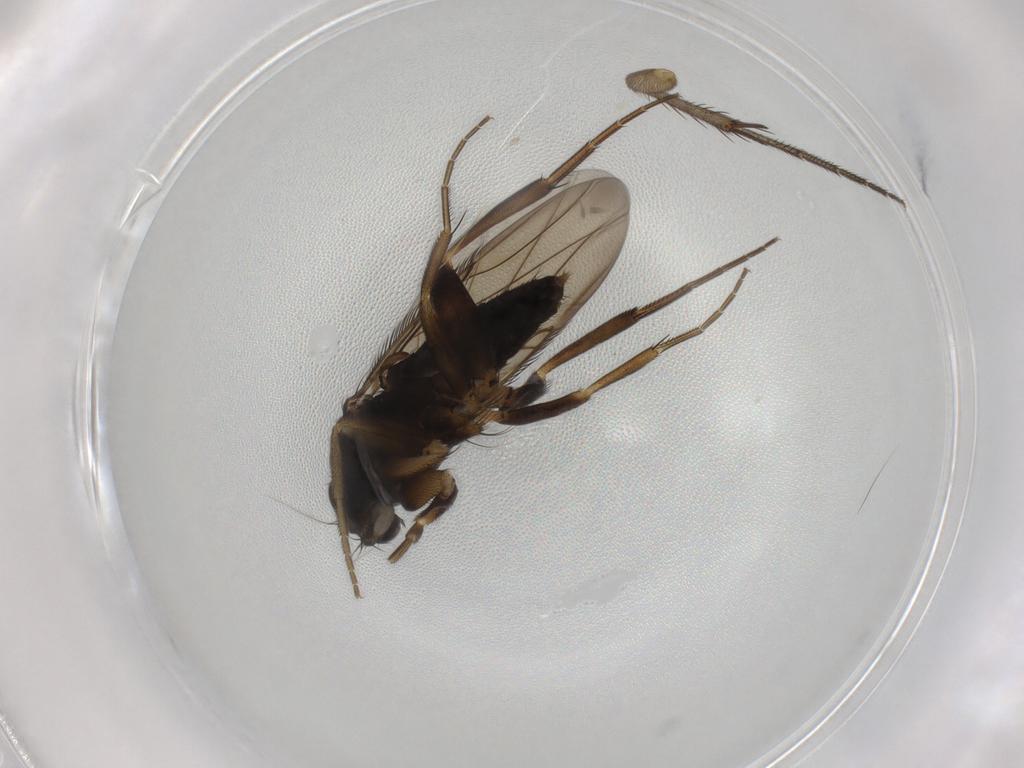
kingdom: Animalia
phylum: Arthropoda
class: Insecta
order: Diptera
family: Phoridae
